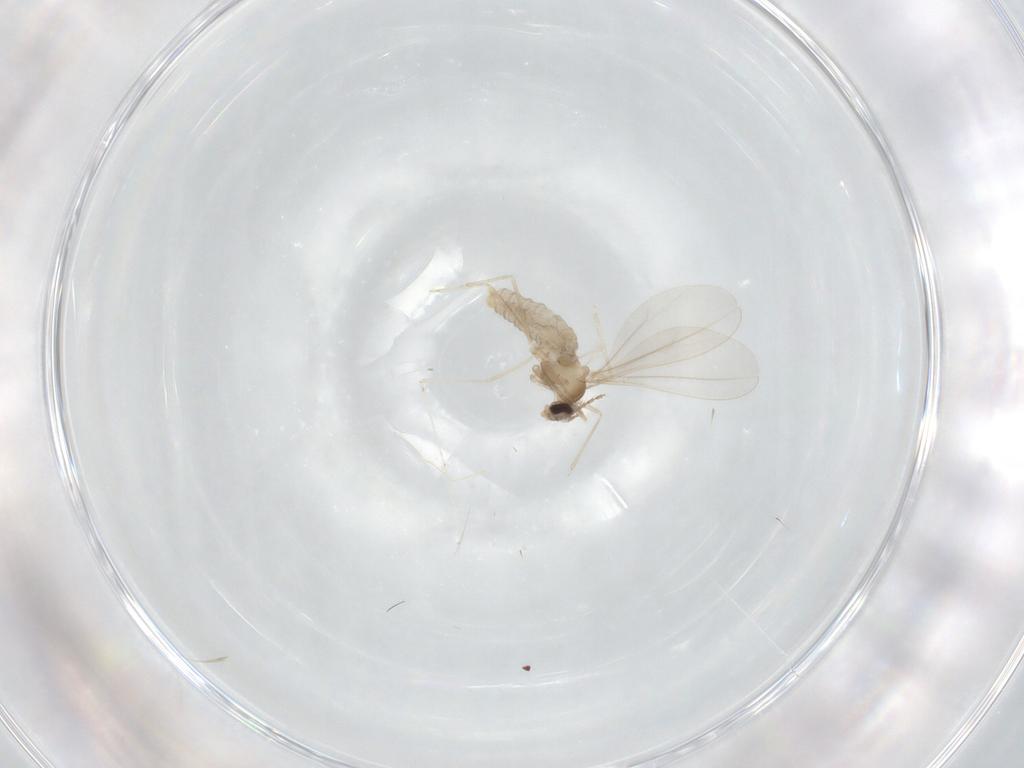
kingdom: Animalia
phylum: Arthropoda
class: Insecta
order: Diptera
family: Cecidomyiidae
